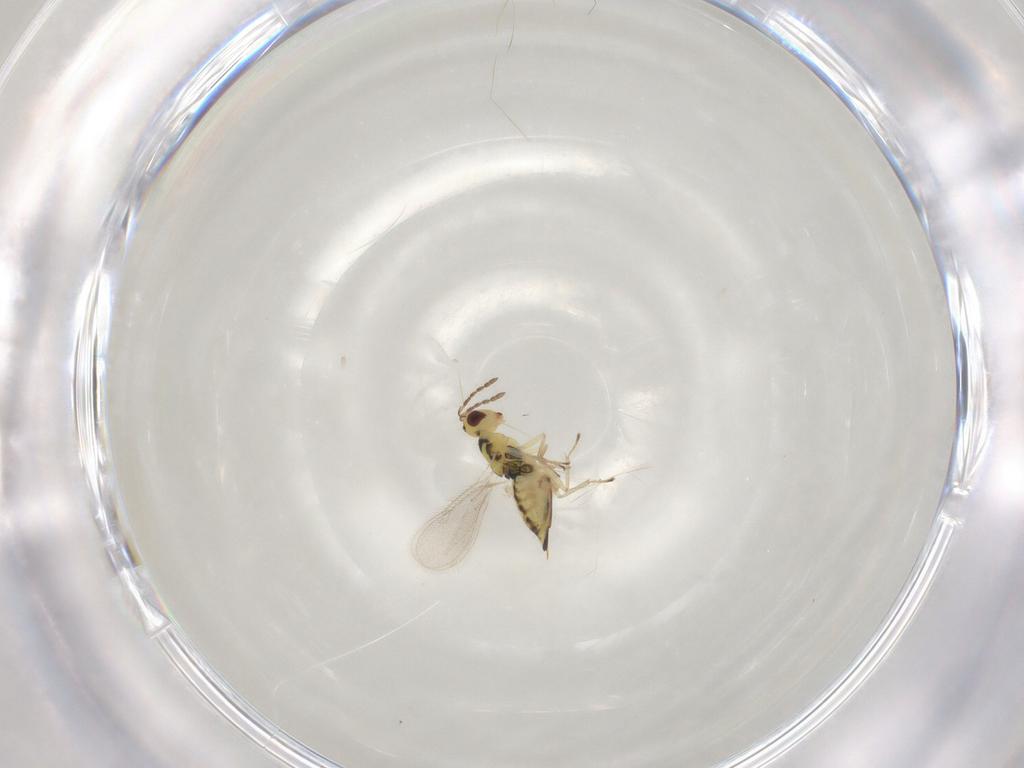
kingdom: Animalia
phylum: Arthropoda
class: Insecta
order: Hymenoptera
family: Eulophidae
